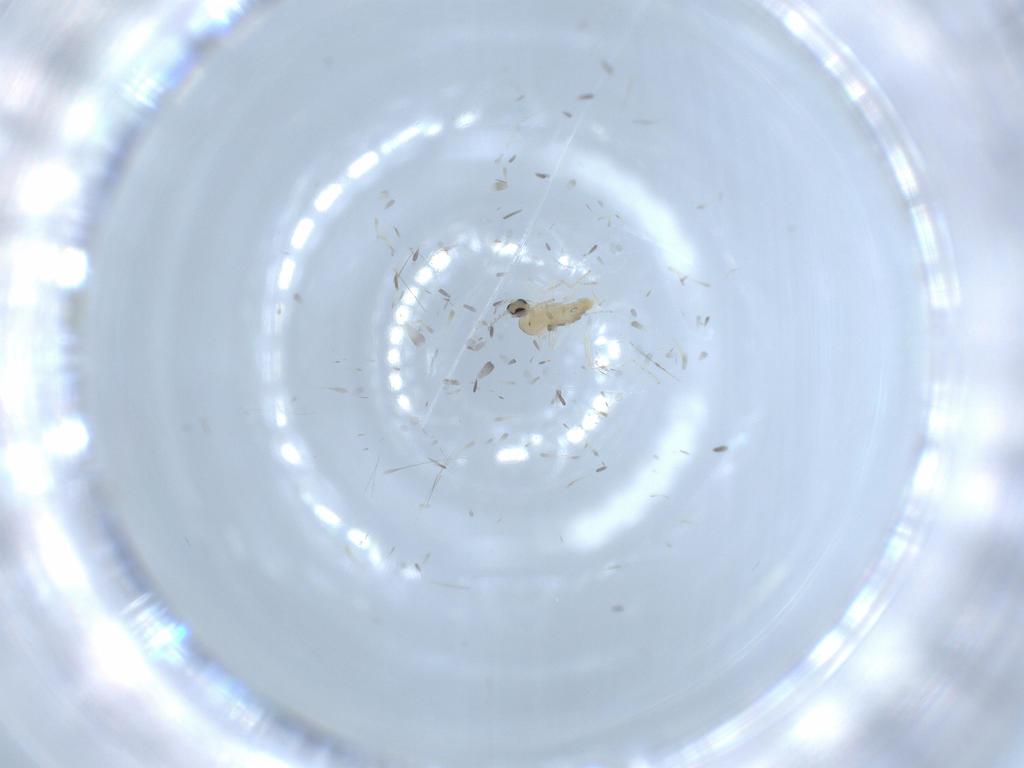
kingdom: Animalia
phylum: Arthropoda
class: Insecta
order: Diptera
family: Cecidomyiidae
